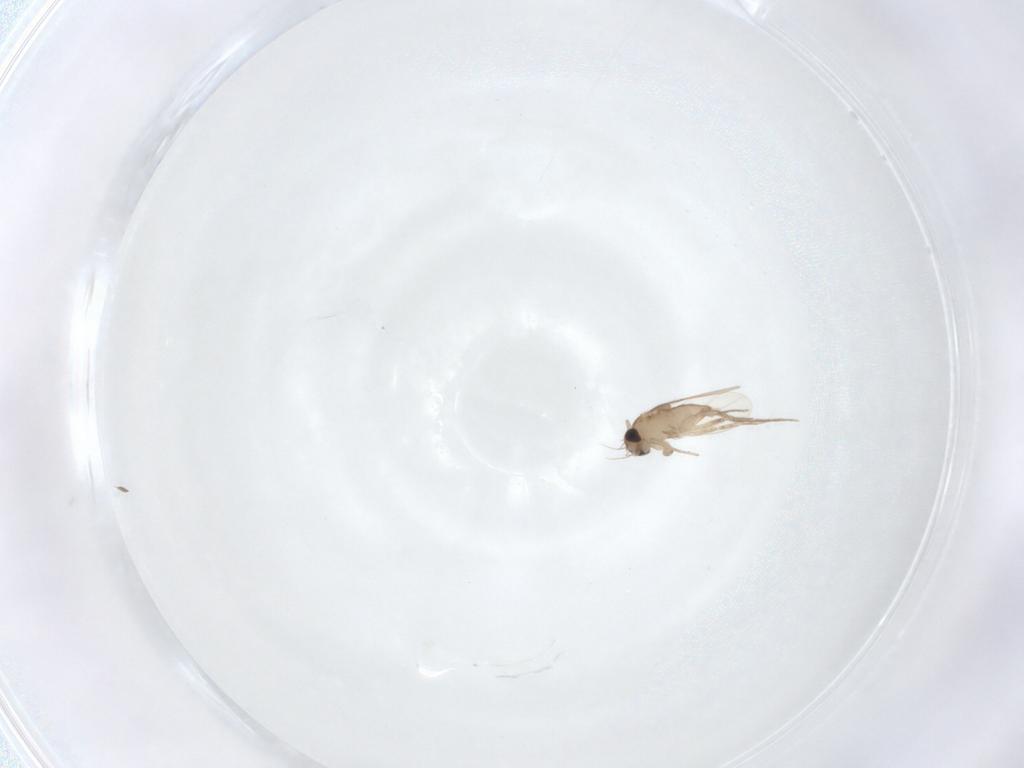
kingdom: Animalia
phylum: Arthropoda
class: Insecta
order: Diptera
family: Phoridae
